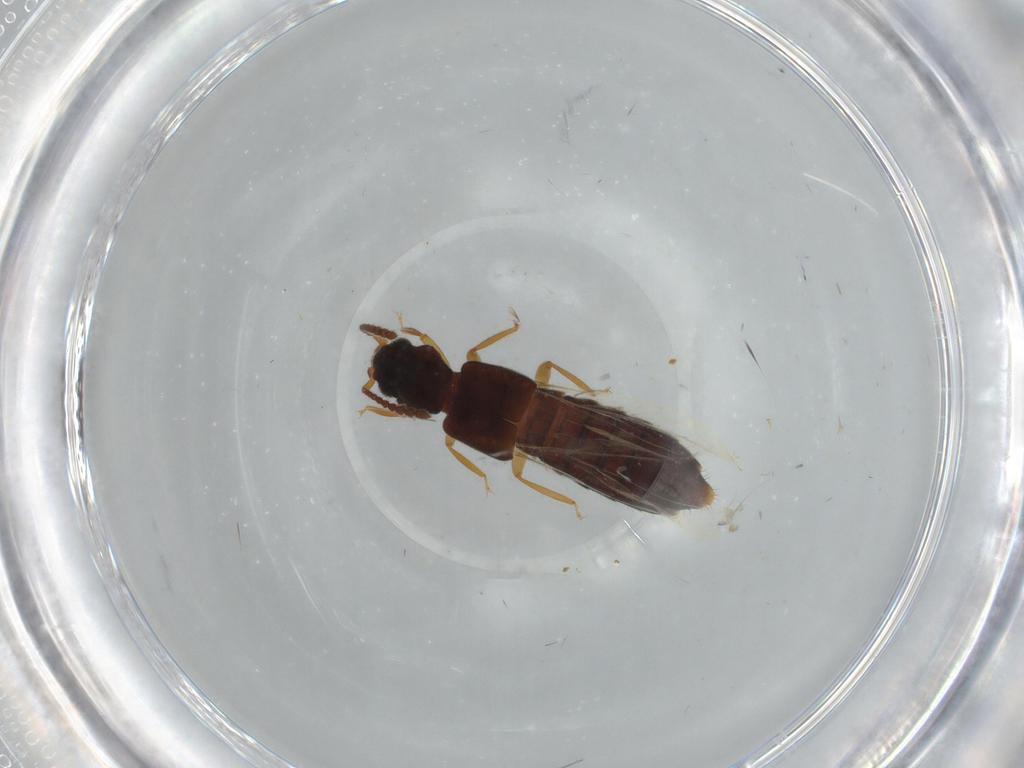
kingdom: Animalia
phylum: Arthropoda
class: Insecta
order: Coleoptera
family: Staphylinidae
